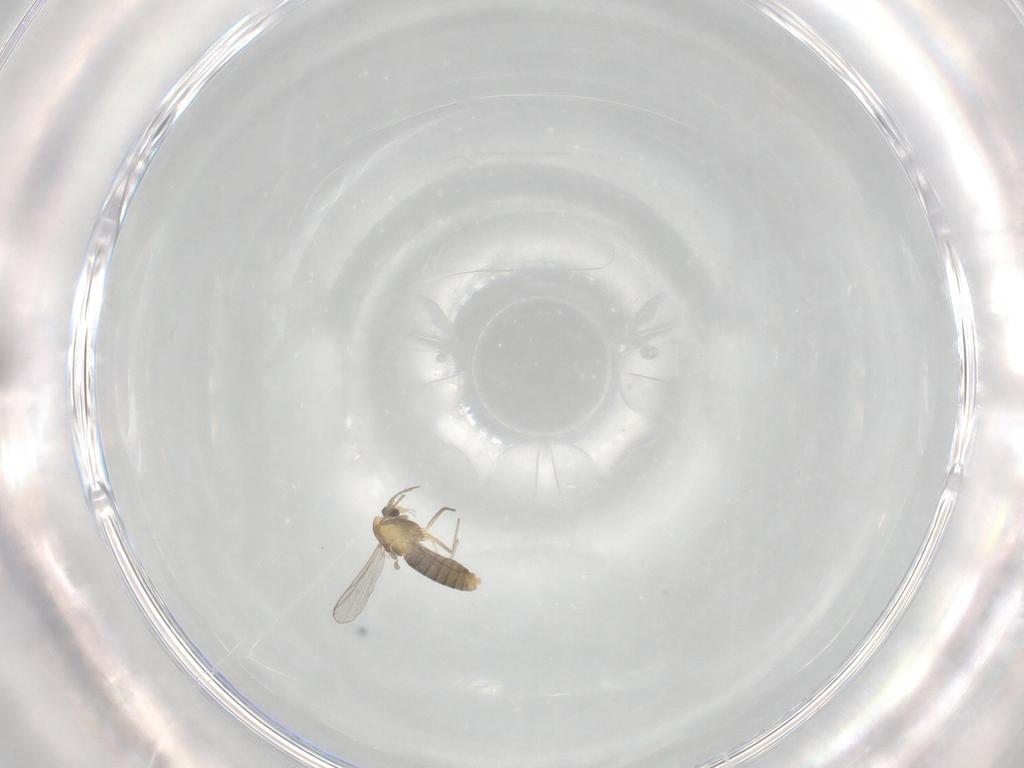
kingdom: Animalia
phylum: Arthropoda
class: Insecta
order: Diptera
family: Chironomidae
